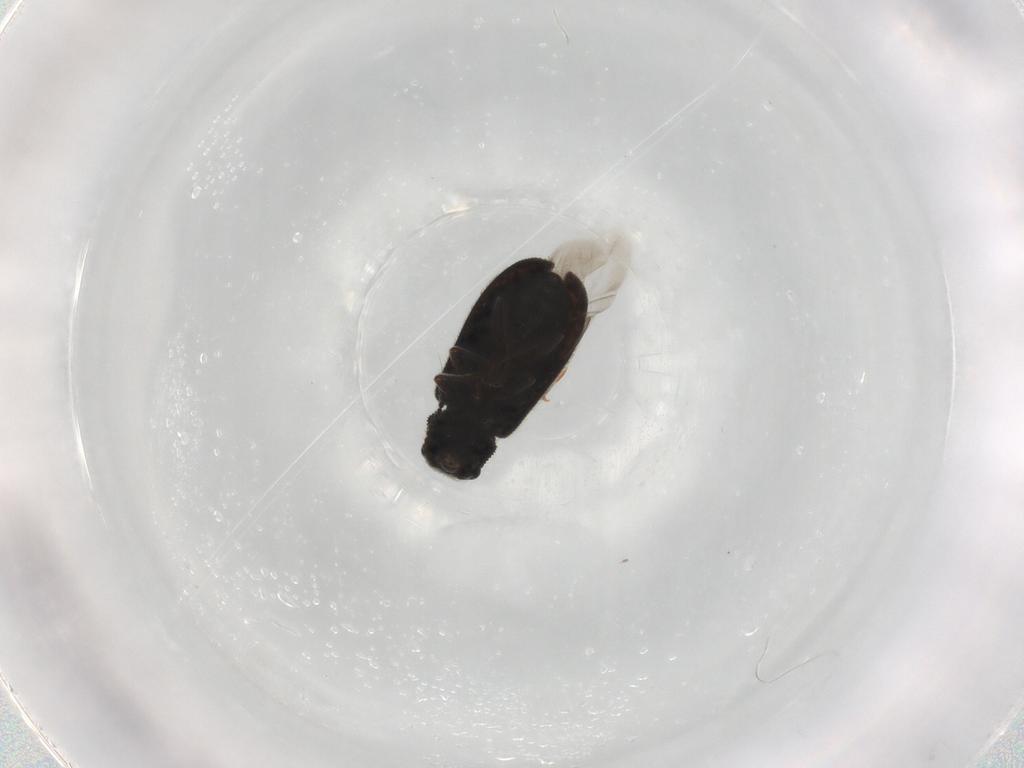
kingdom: Animalia
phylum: Arthropoda
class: Insecta
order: Coleoptera
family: Melyridae
